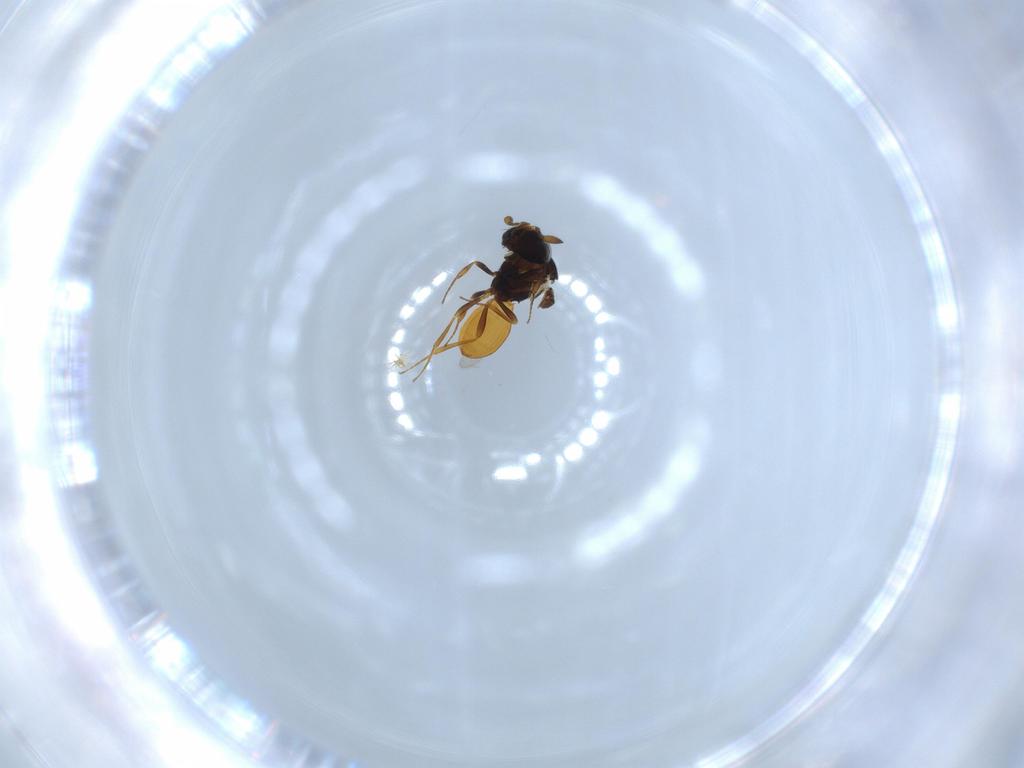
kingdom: Animalia
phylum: Arthropoda
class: Insecta
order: Hymenoptera
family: Scelionidae
